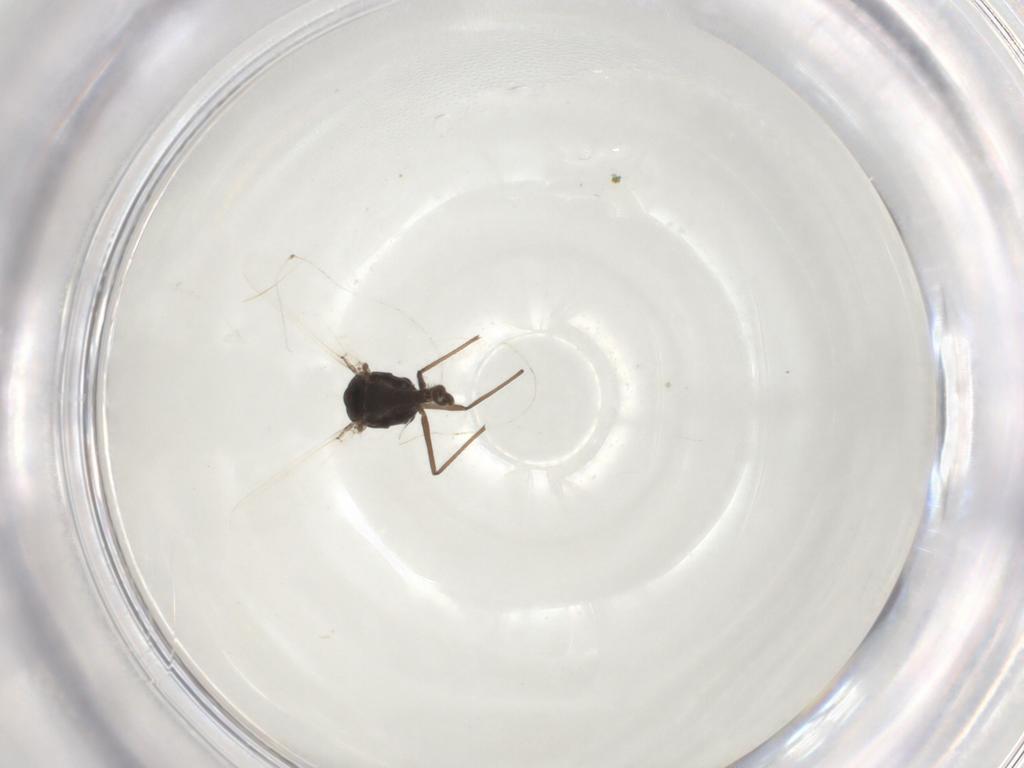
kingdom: Animalia
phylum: Arthropoda
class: Insecta
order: Diptera
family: Chironomidae
